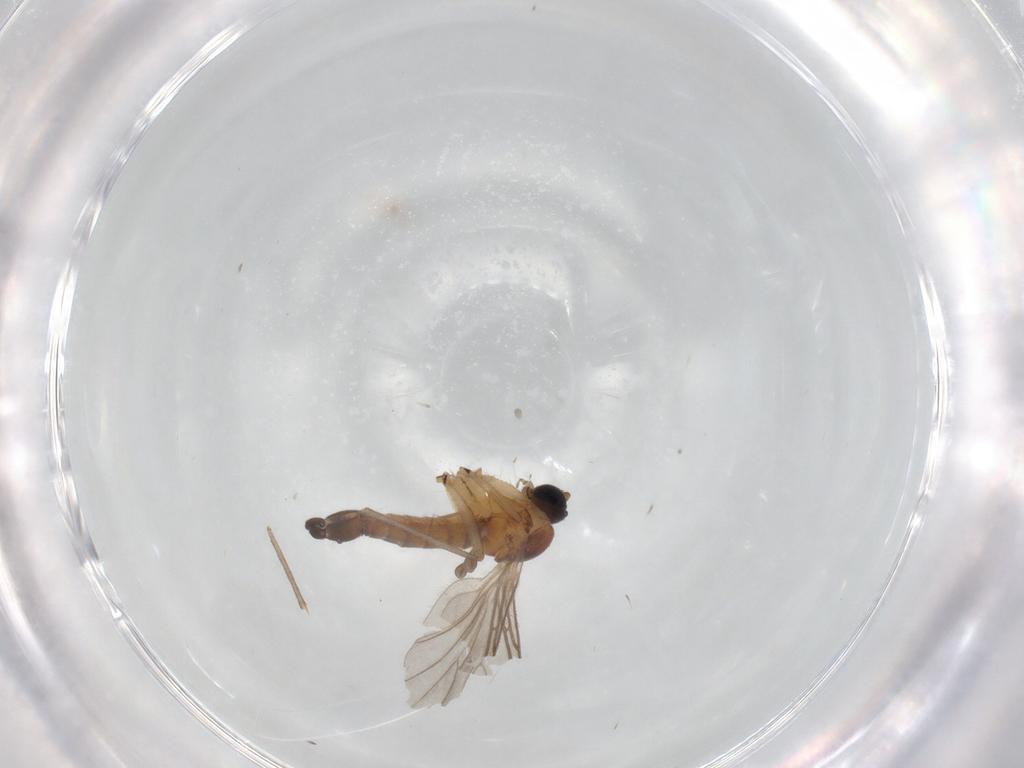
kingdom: Animalia
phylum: Arthropoda
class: Insecta
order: Diptera
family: Sciaridae
